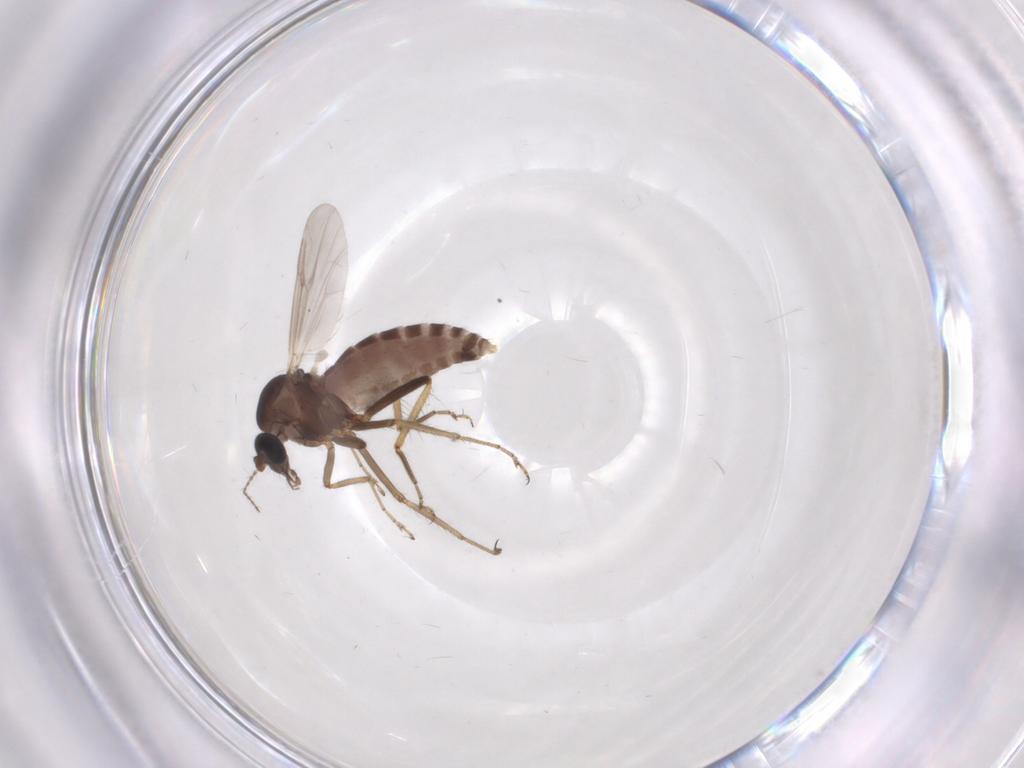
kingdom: Animalia
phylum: Arthropoda
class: Insecta
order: Diptera
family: Ceratopogonidae
